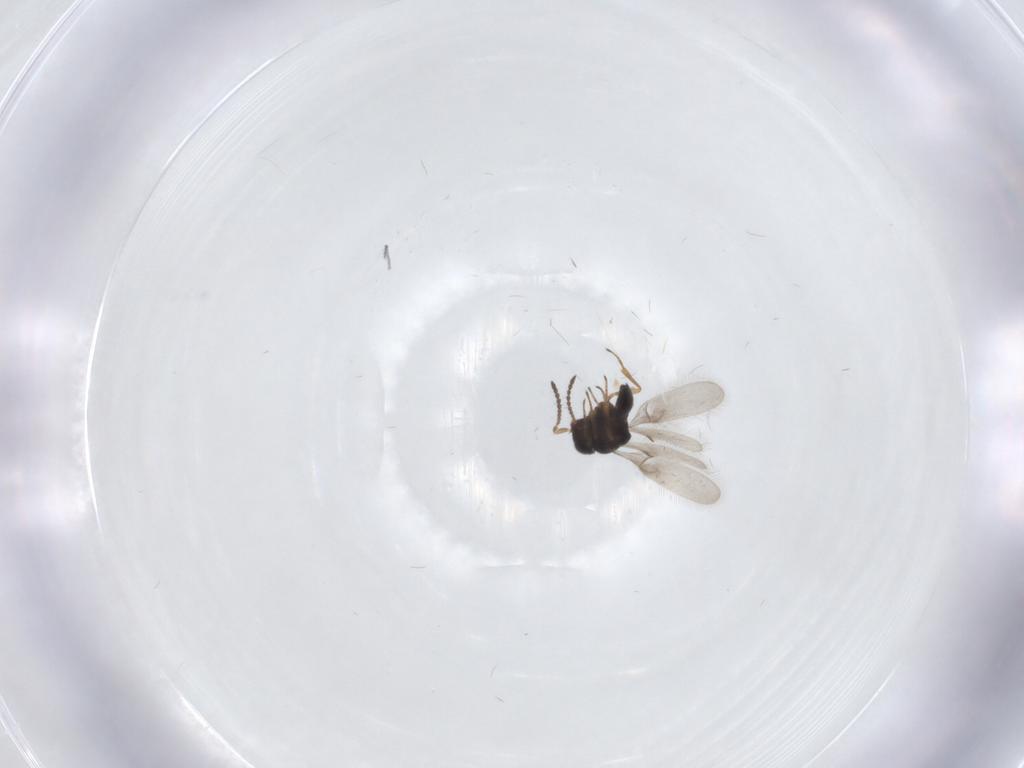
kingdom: Animalia
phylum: Arthropoda
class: Insecta
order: Hymenoptera
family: Scelionidae
